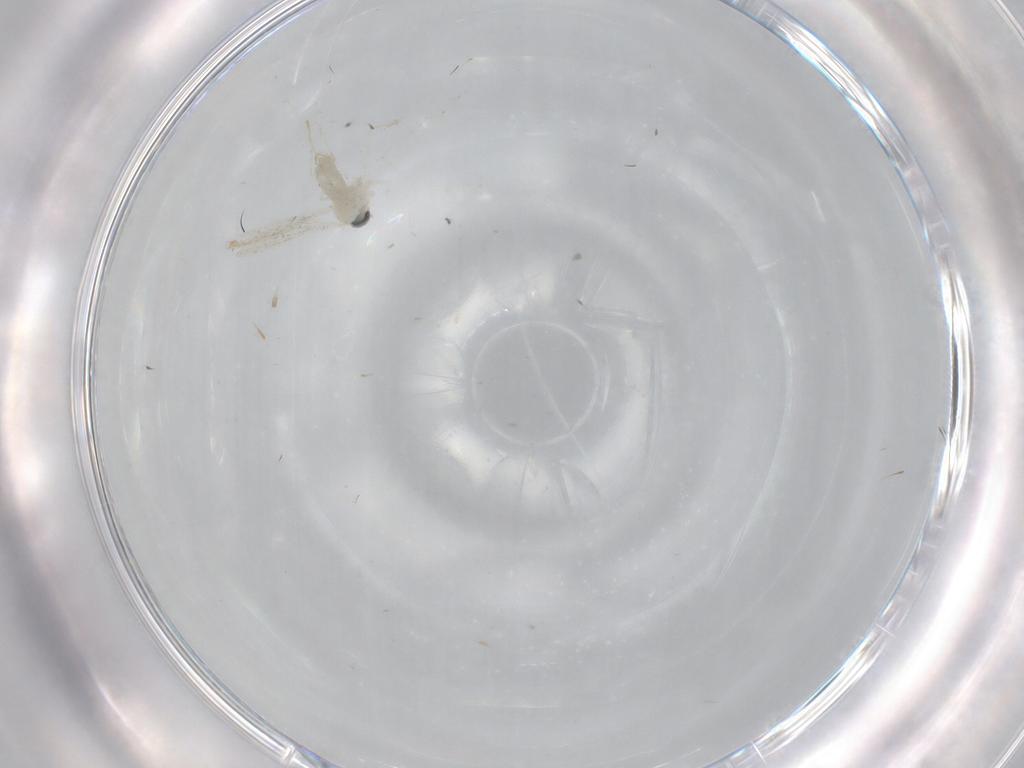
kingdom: Animalia
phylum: Arthropoda
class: Insecta
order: Diptera
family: Cecidomyiidae
